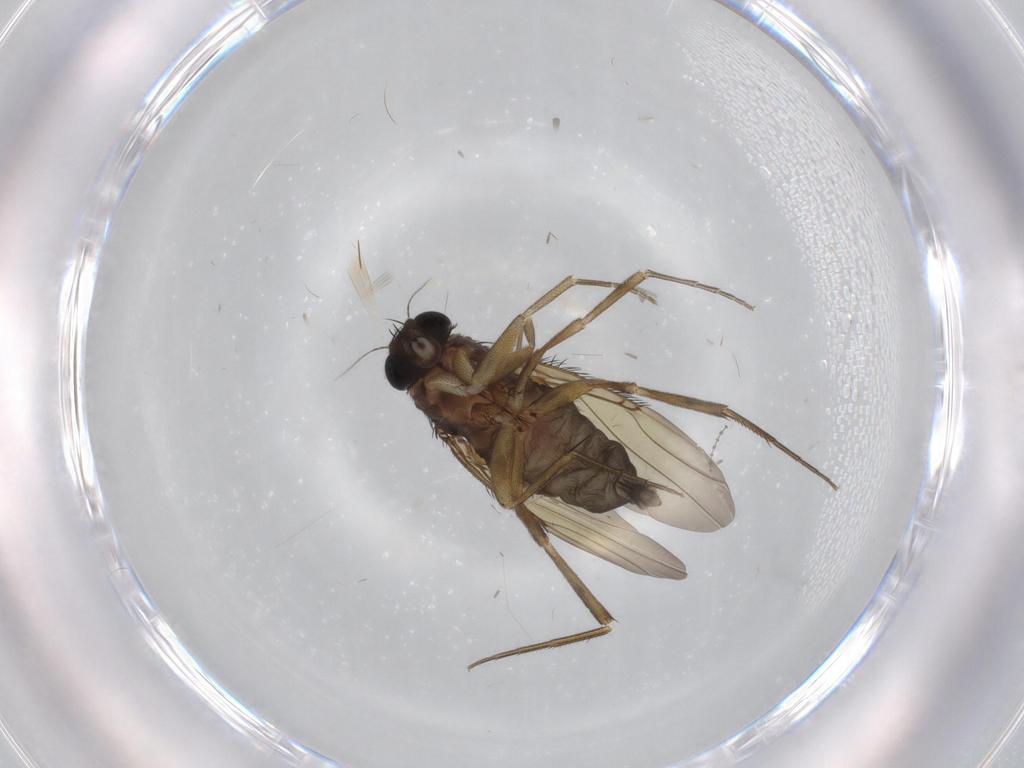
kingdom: Animalia
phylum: Arthropoda
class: Insecta
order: Diptera
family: Phoridae
